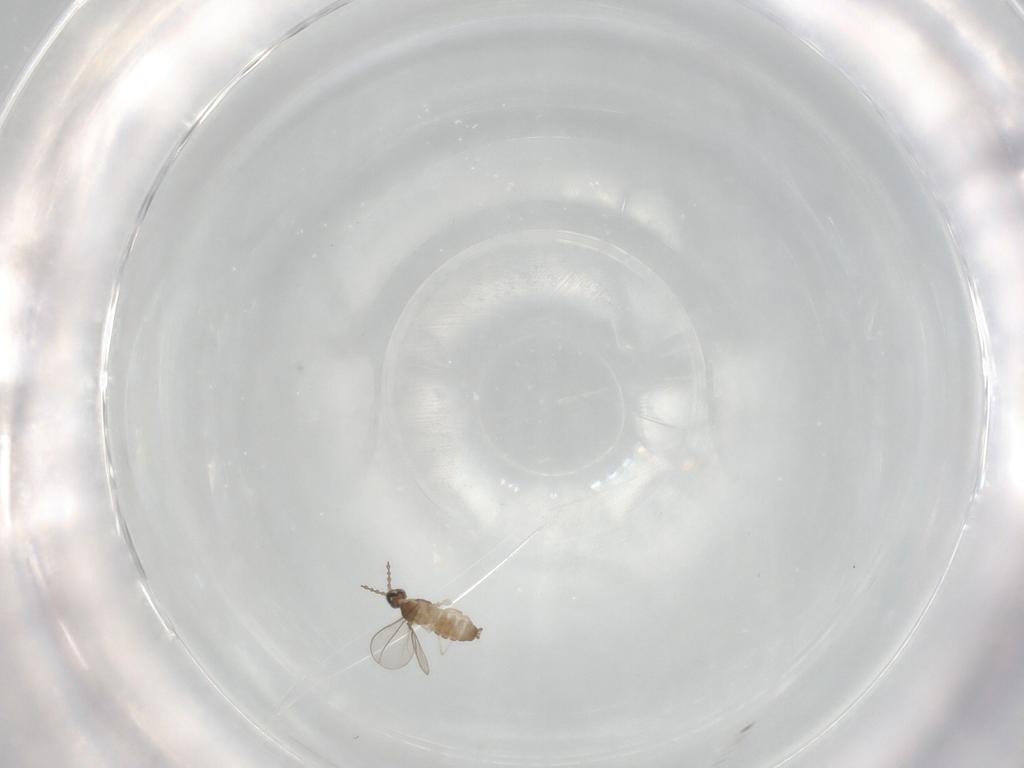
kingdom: Animalia
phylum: Arthropoda
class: Insecta
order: Diptera
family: Cecidomyiidae
